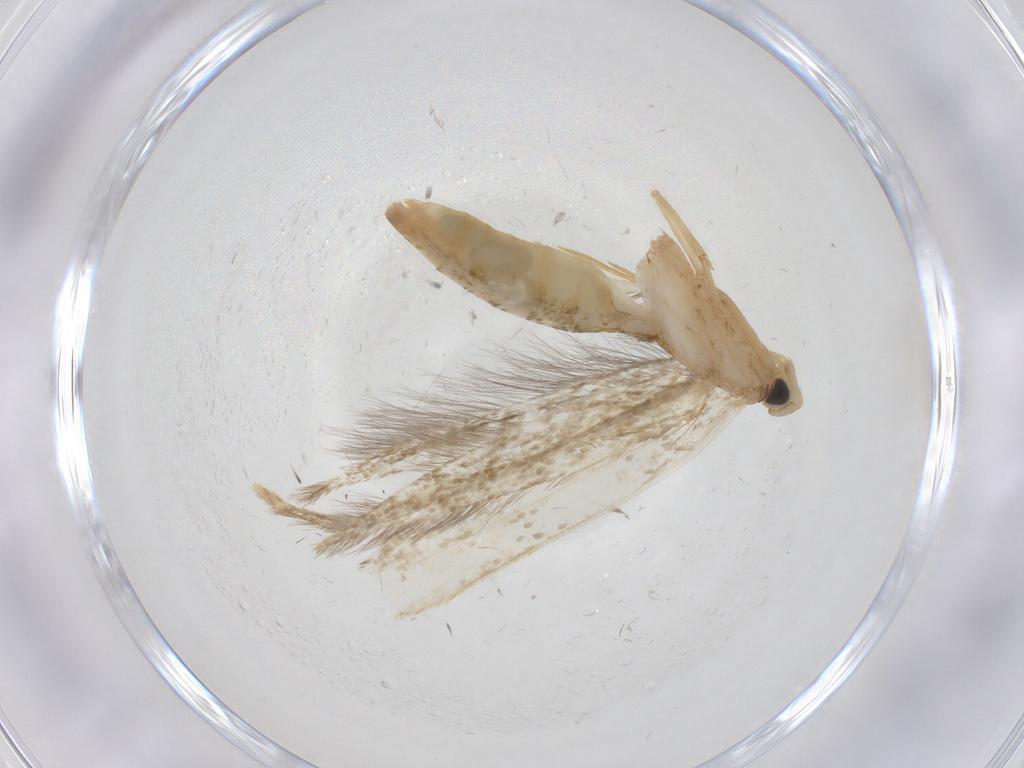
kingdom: Animalia
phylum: Arthropoda
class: Insecta
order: Lepidoptera
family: Tineidae
